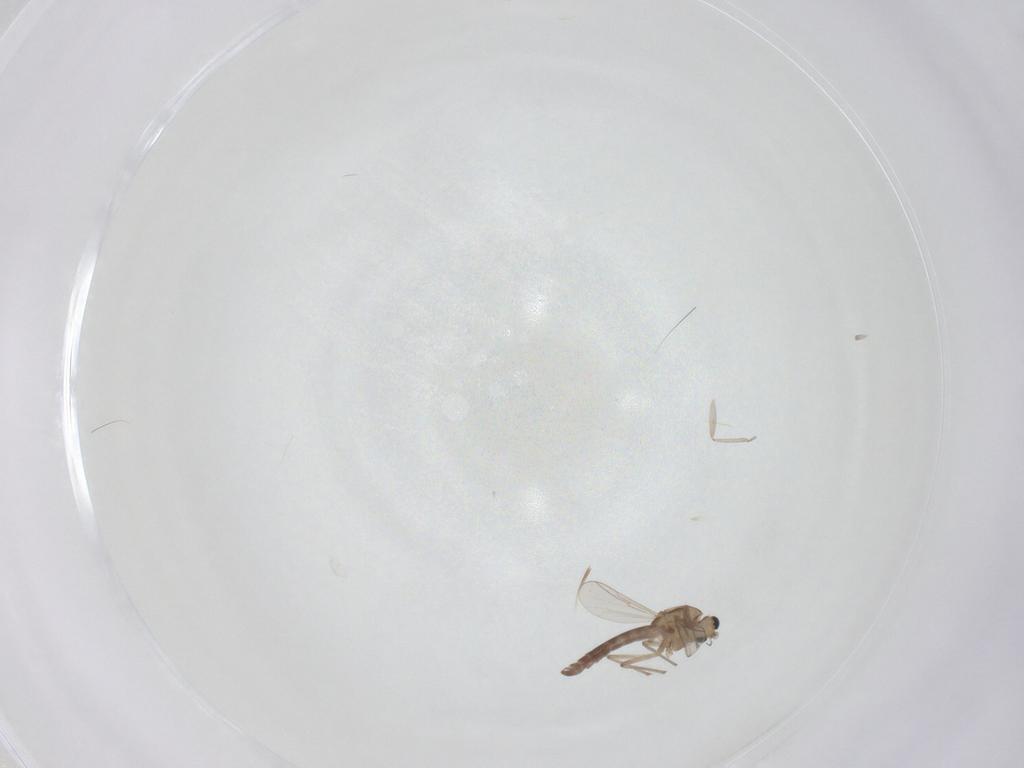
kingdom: Animalia
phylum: Arthropoda
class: Insecta
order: Diptera
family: Chironomidae
